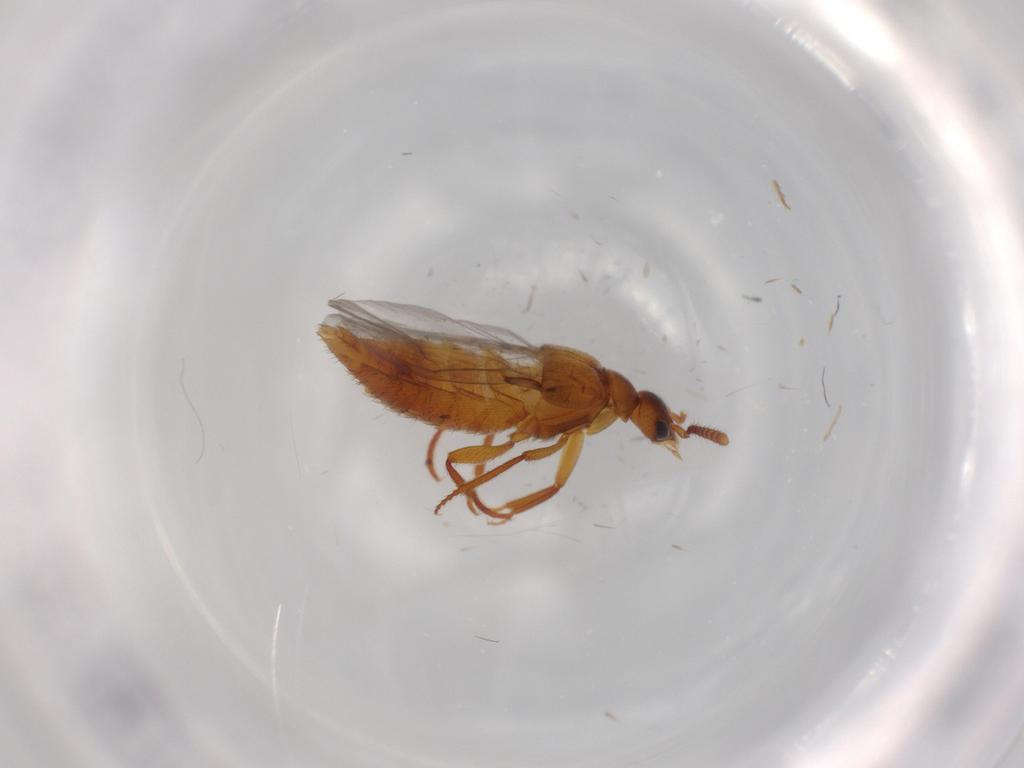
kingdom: Animalia
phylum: Arthropoda
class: Insecta
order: Coleoptera
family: Staphylinidae
